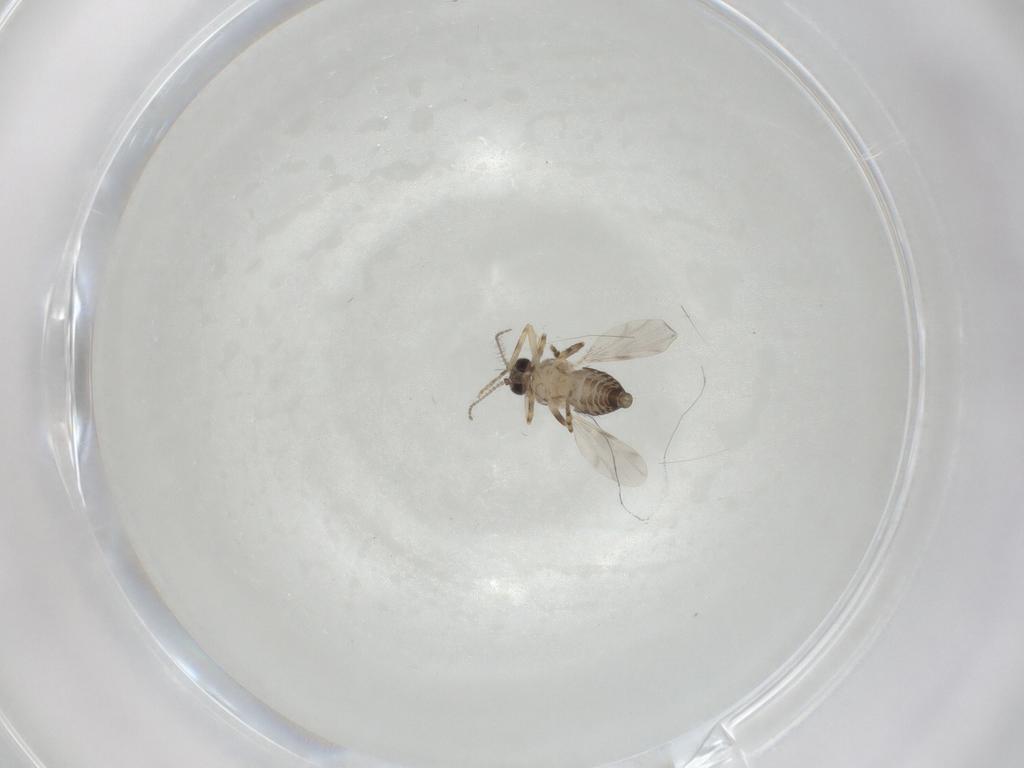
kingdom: Animalia
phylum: Arthropoda
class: Insecta
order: Diptera
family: Ceratopogonidae
